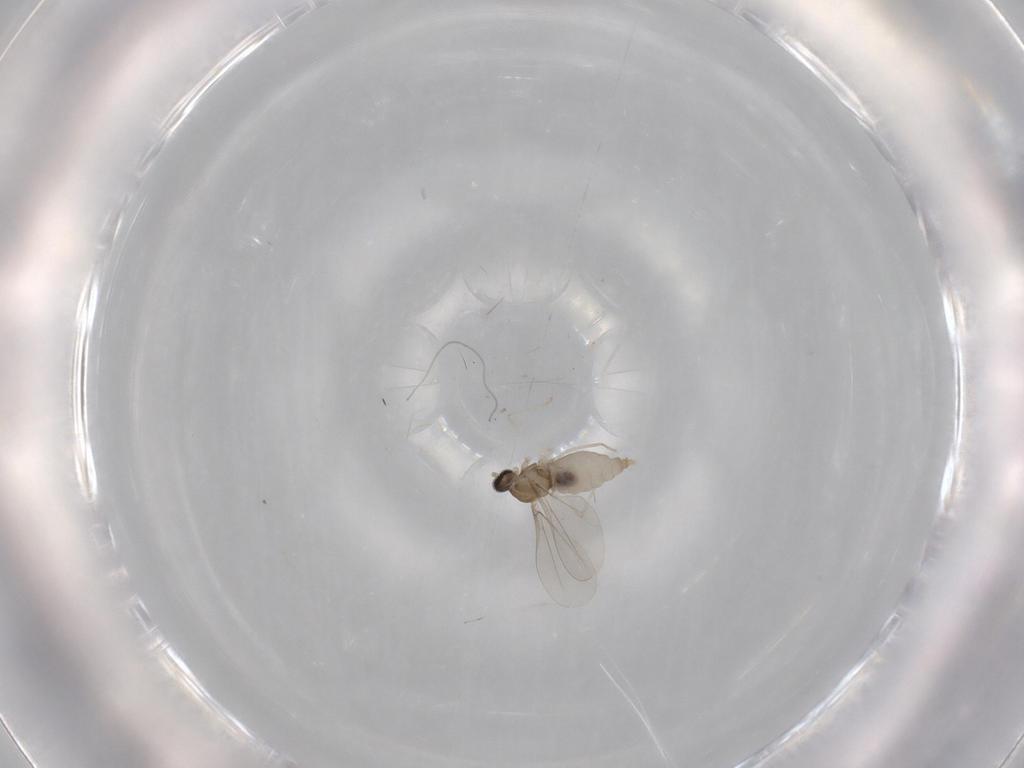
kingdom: Animalia
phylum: Arthropoda
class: Insecta
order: Diptera
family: Cecidomyiidae
